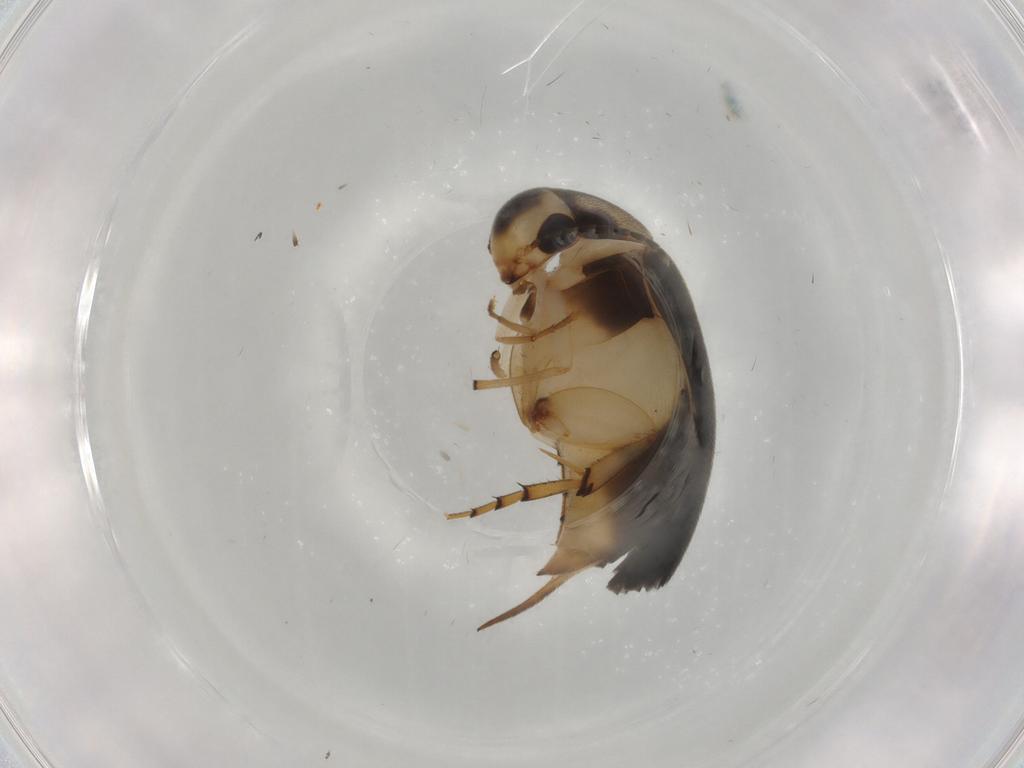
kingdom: Animalia
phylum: Arthropoda
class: Insecta
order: Coleoptera
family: Mordellidae
